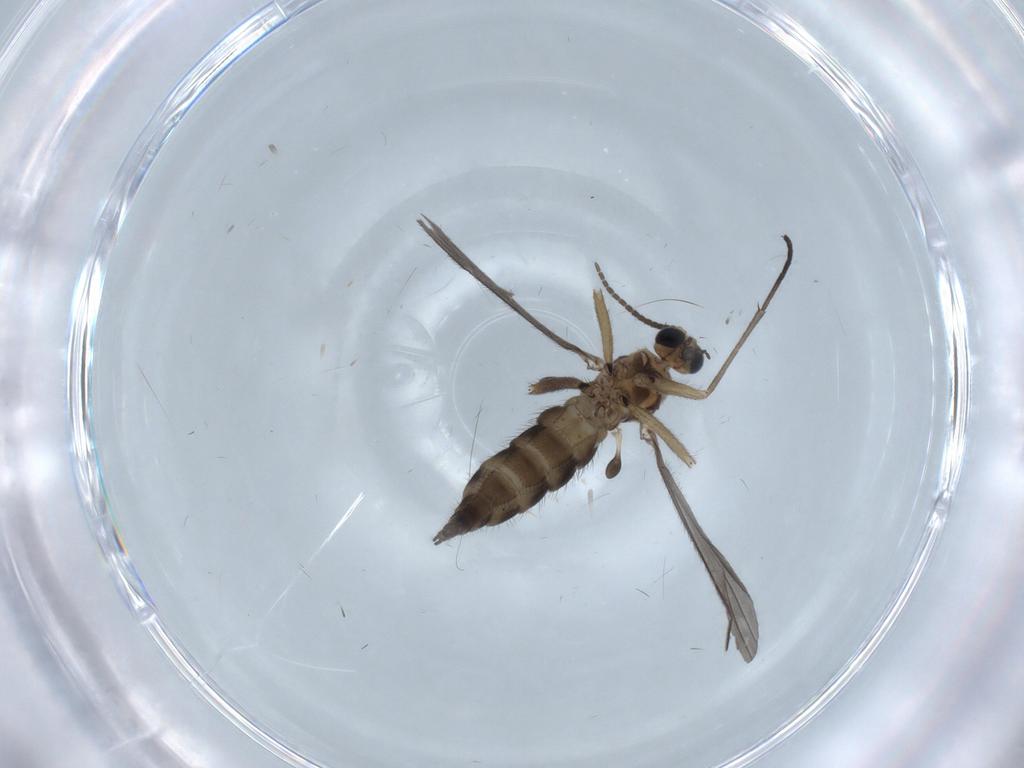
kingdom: Animalia
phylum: Arthropoda
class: Insecta
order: Diptera
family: Sciaridae
